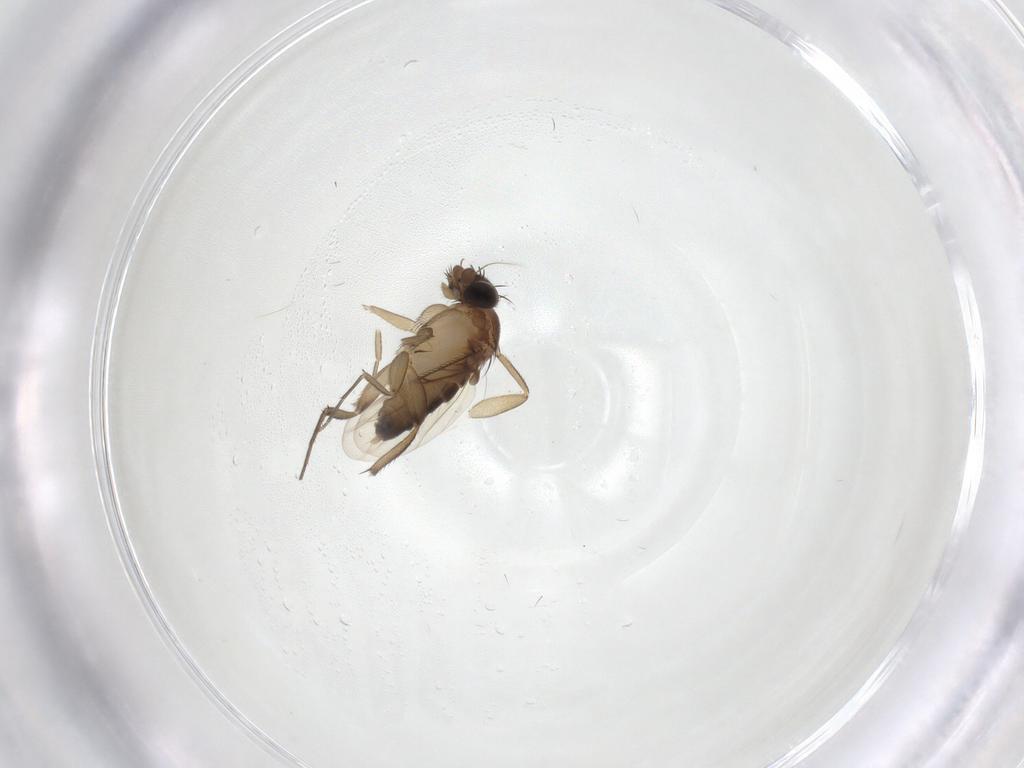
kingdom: Animalia
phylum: Arthropoda
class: Insecta
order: Diptera
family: Phoridae
